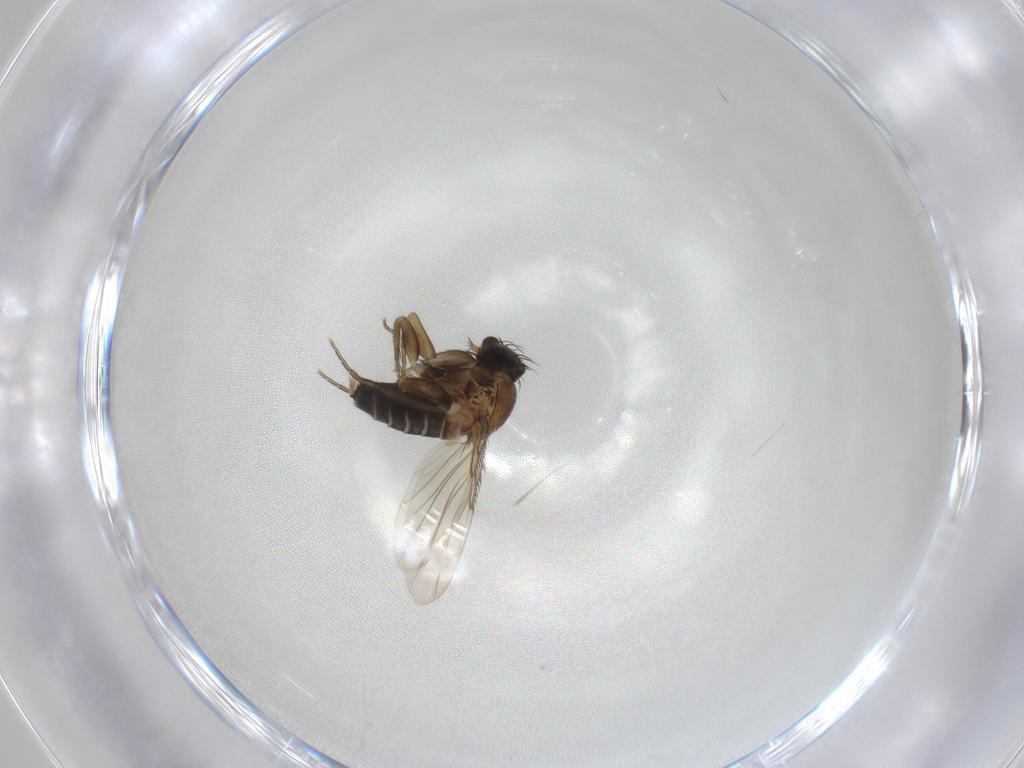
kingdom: Animalia
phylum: Arthropoda
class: Insecta
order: Diptera
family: Phoridae
